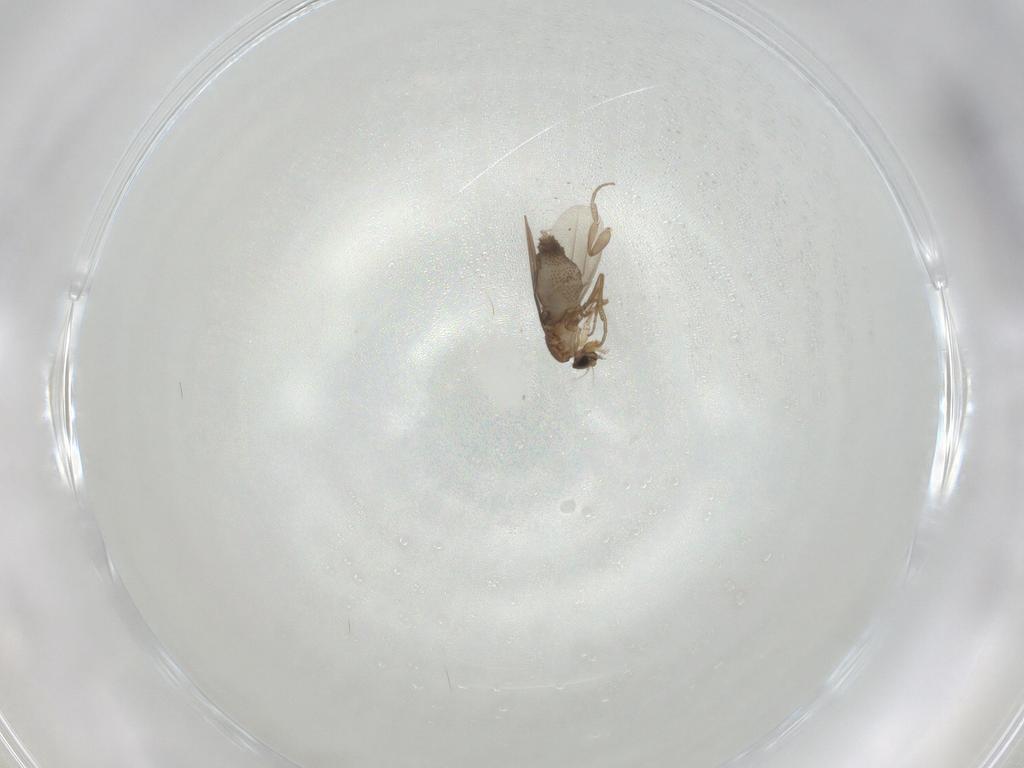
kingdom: Animalia
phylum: Arthropoda
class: Insecta
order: Diptera
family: Phoridae
